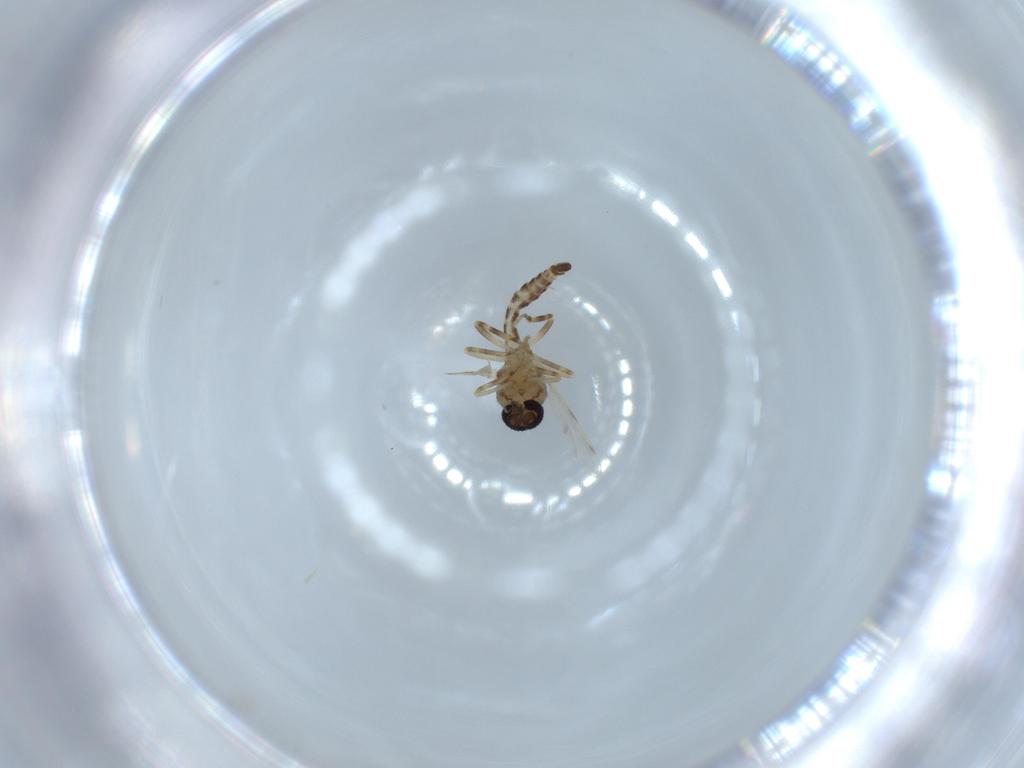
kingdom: Animalia
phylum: Arthropoda
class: Insecta
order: Diptera
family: Ceratopogonidae
